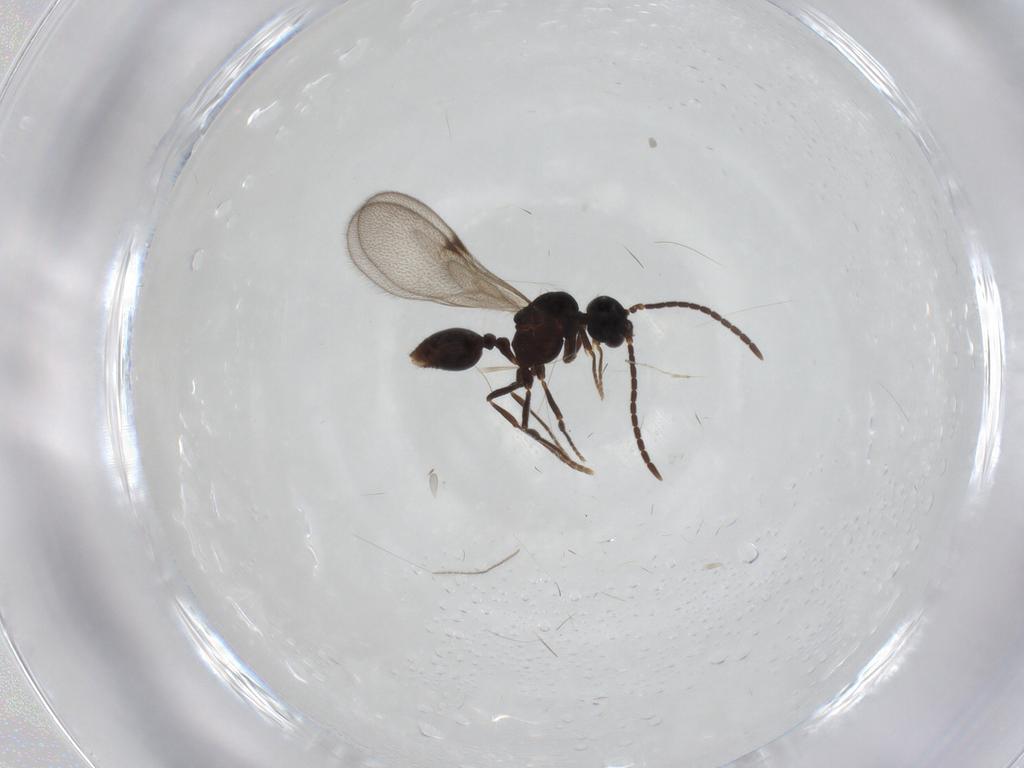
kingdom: Animalia
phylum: Arthropoda
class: Insecta
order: Hymenoptera
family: Formicidae
